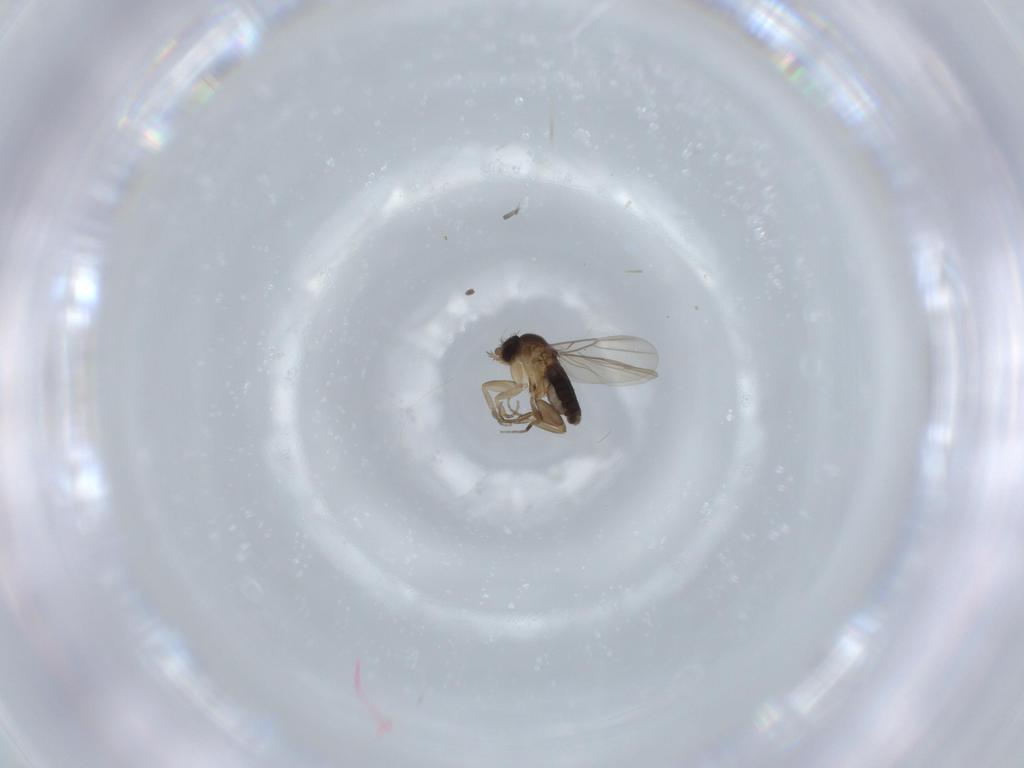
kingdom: Animalia
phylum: Arthropoda
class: Insecta
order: Diptera
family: Phoridae
